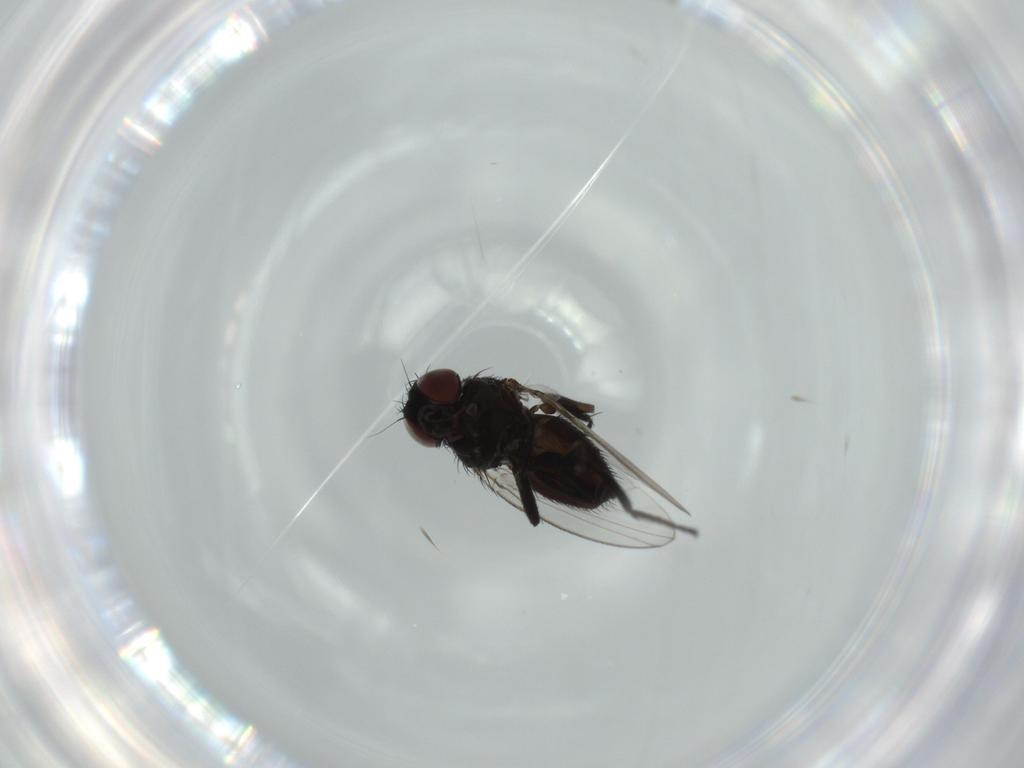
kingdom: Animalia
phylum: Arthropoda
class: Insecta
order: Diptera
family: Milichiidae
